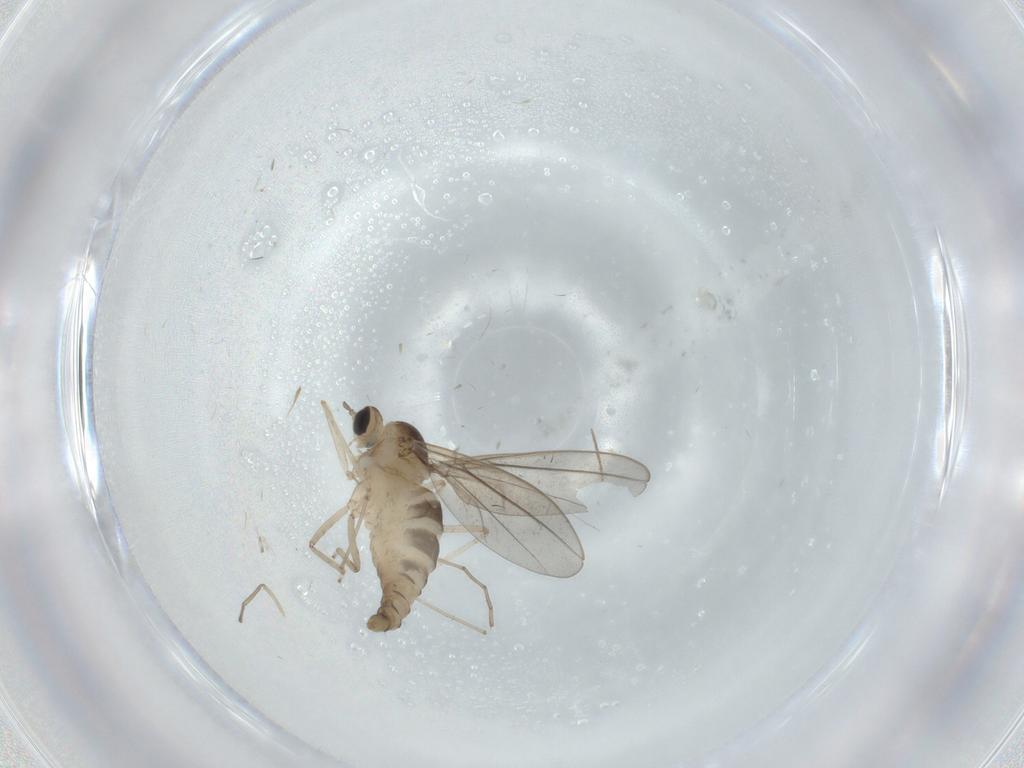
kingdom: Animalia
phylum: Arthropoda
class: Insecta
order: Diptera
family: Cecidomyiidae
